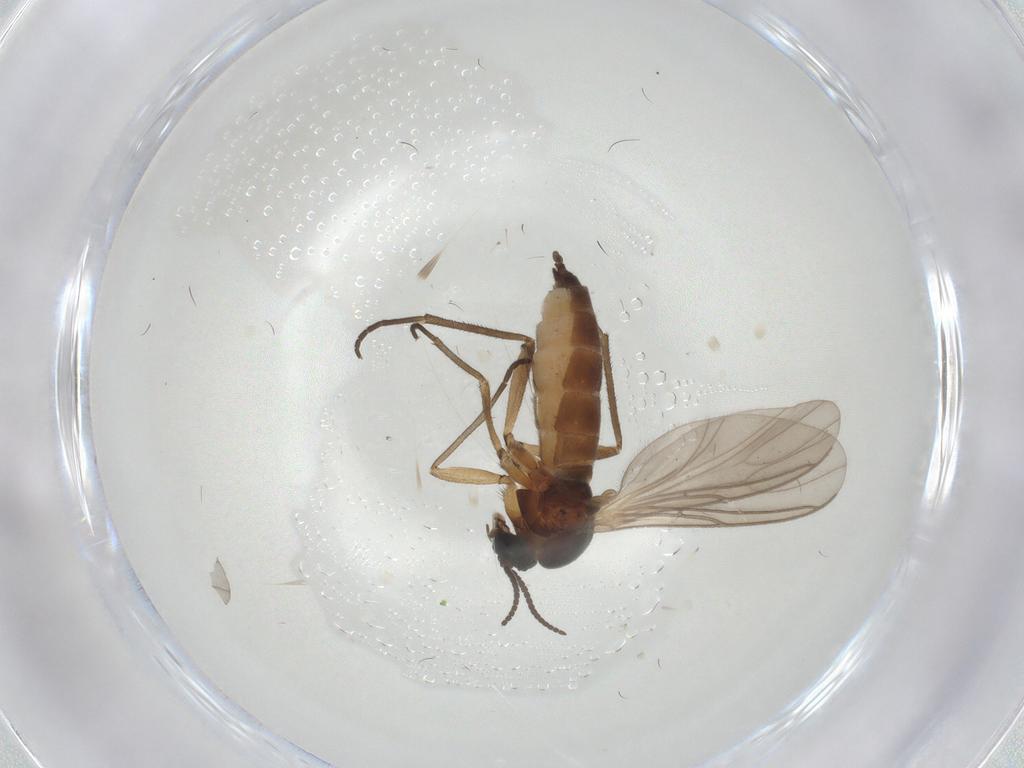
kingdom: Animalia
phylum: Arthropoda
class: Insecta
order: Diptera
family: Sciaridae
